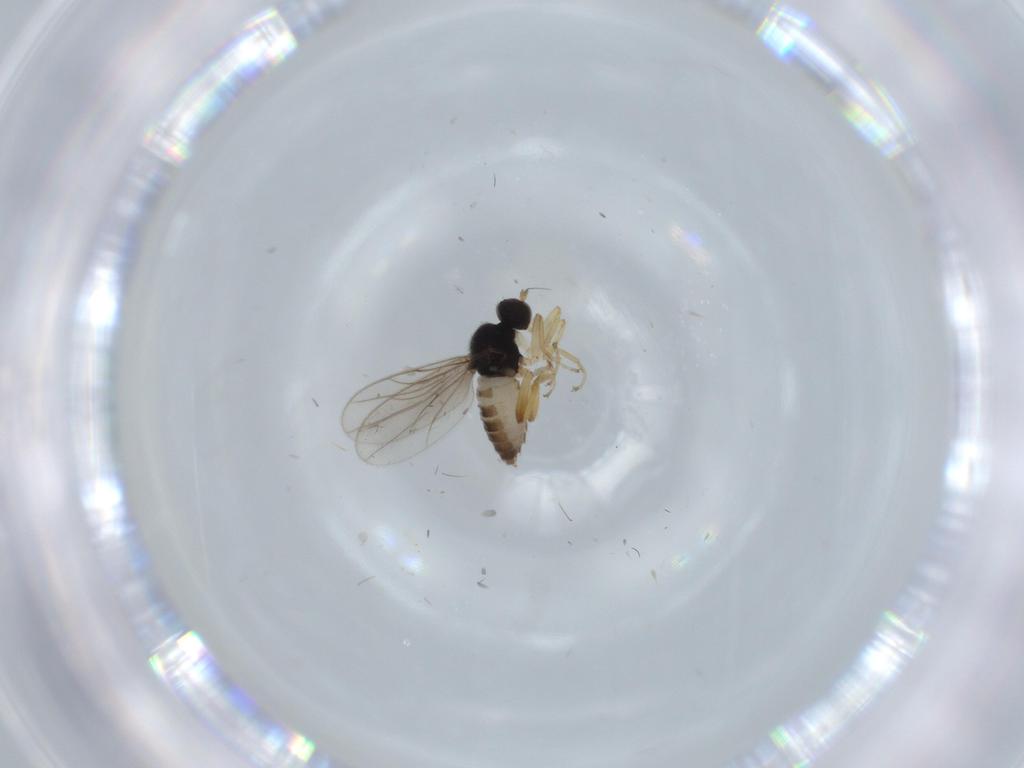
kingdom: Animalia
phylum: Arthropoda
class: Insecta
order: Diptera
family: Hybotidae
